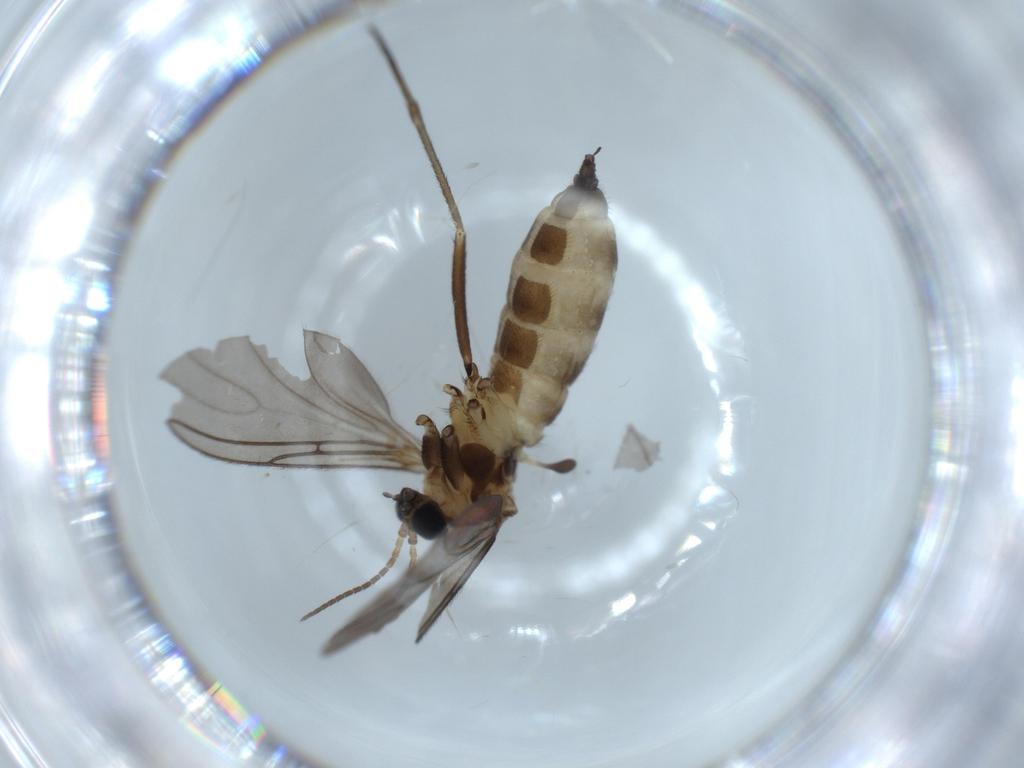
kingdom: Animalia
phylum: Arthropoda
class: Insecta
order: Diptera
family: Sciaridae
